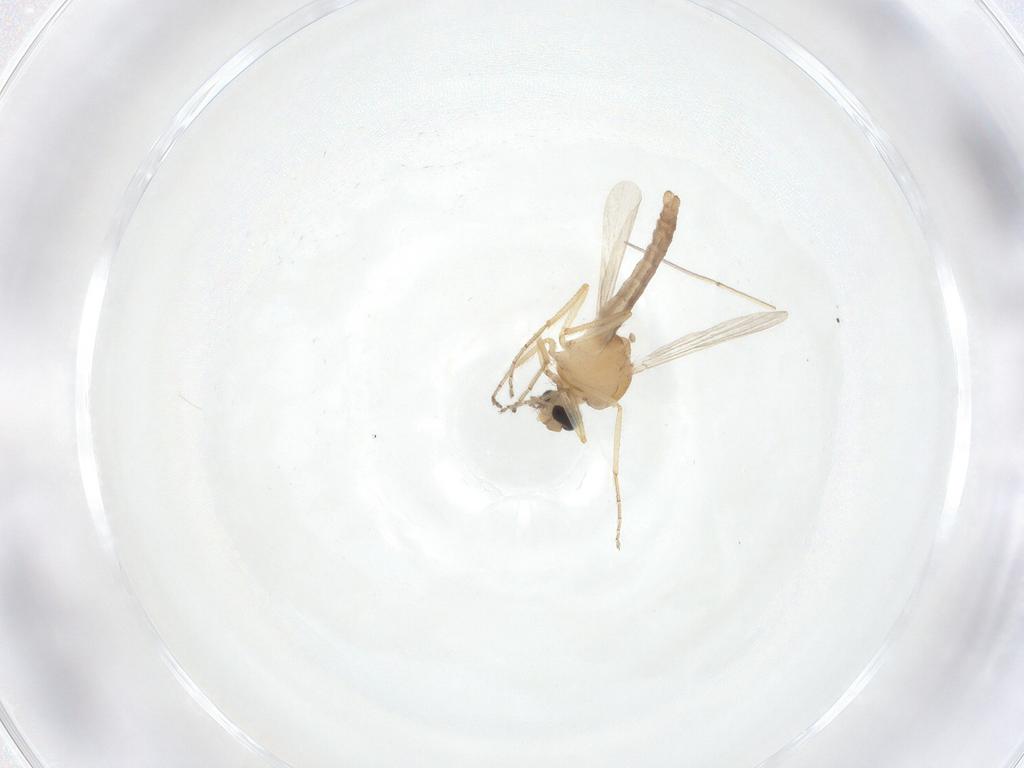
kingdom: Animalia
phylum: Arthropoda
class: Insecta
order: Diptera
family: Ceratopogonidae
